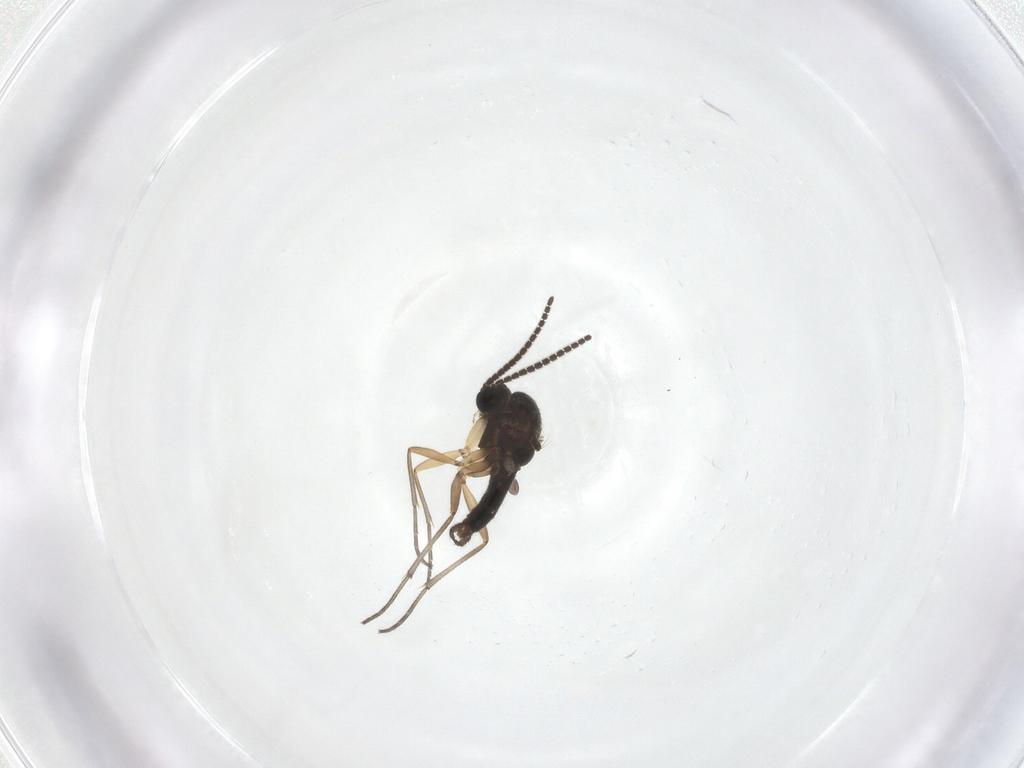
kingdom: Animalia
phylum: Arthropoda
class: Insecta
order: Diptera
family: Sciaridae
